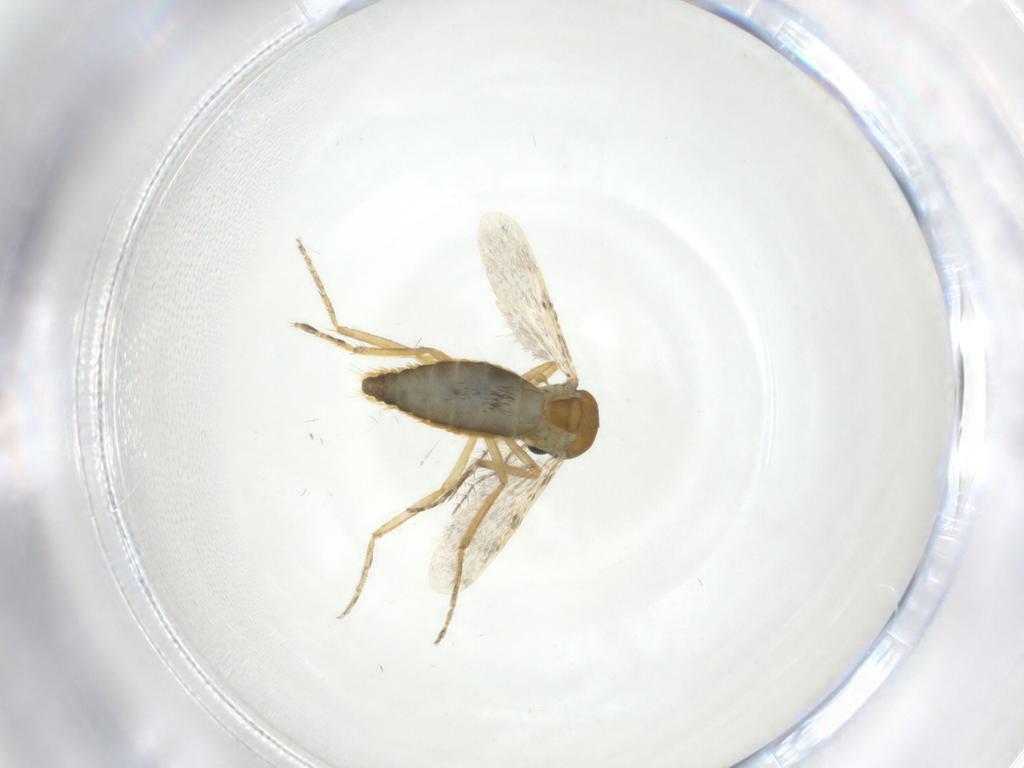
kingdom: Animalia
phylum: Arthropoda
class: Insecta
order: Diptera
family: Ceratopogonidae
